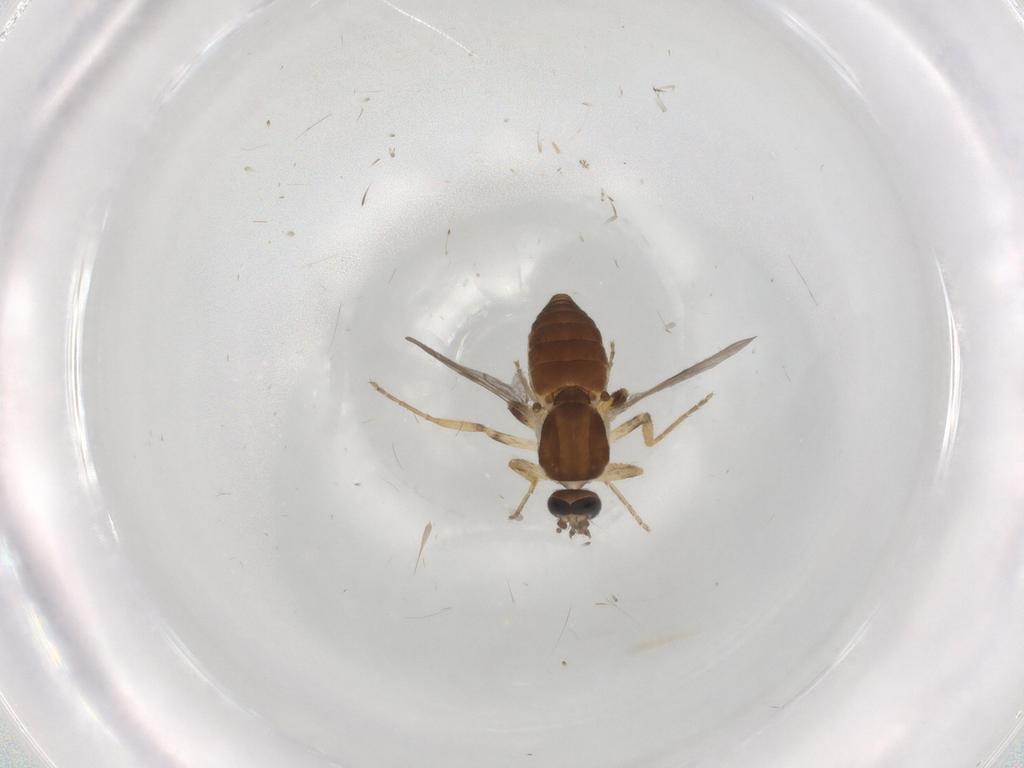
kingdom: Animalia
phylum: Arthropoda
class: Insecta
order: Diptera
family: Ceratopogonidae
